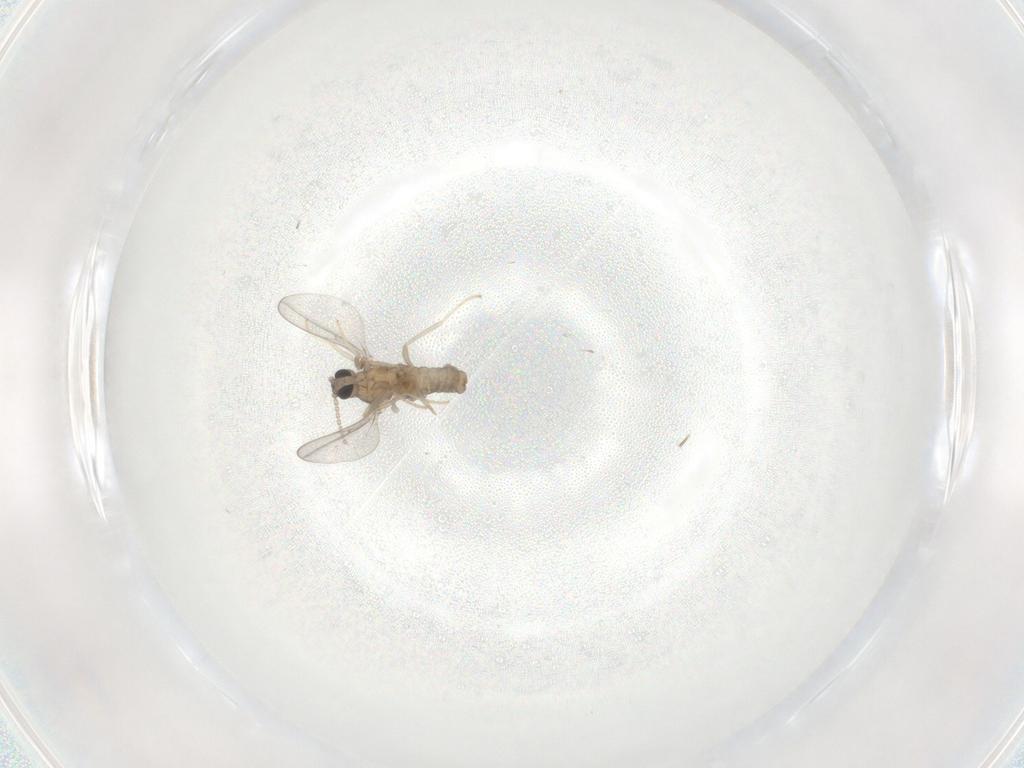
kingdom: Animalia
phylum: Arthropoda
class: Insecta
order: Diptera
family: Cecidomyiidae
